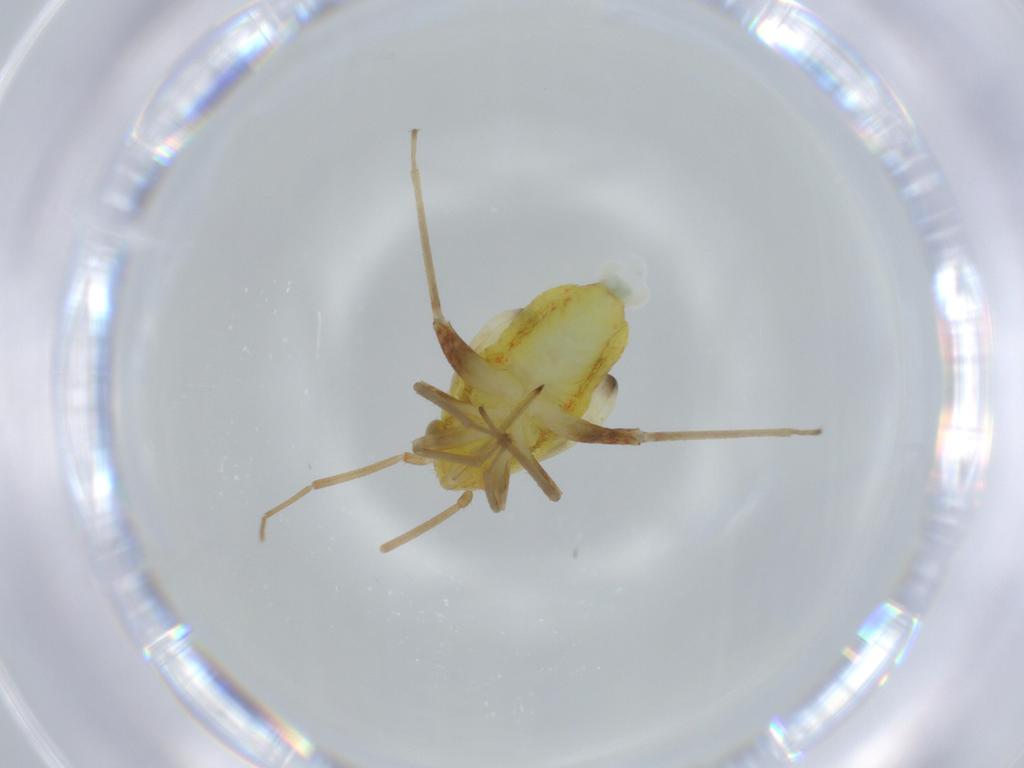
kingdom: Animalia
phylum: Arthropoda
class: Insecta
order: Hemiptera
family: Miridae
